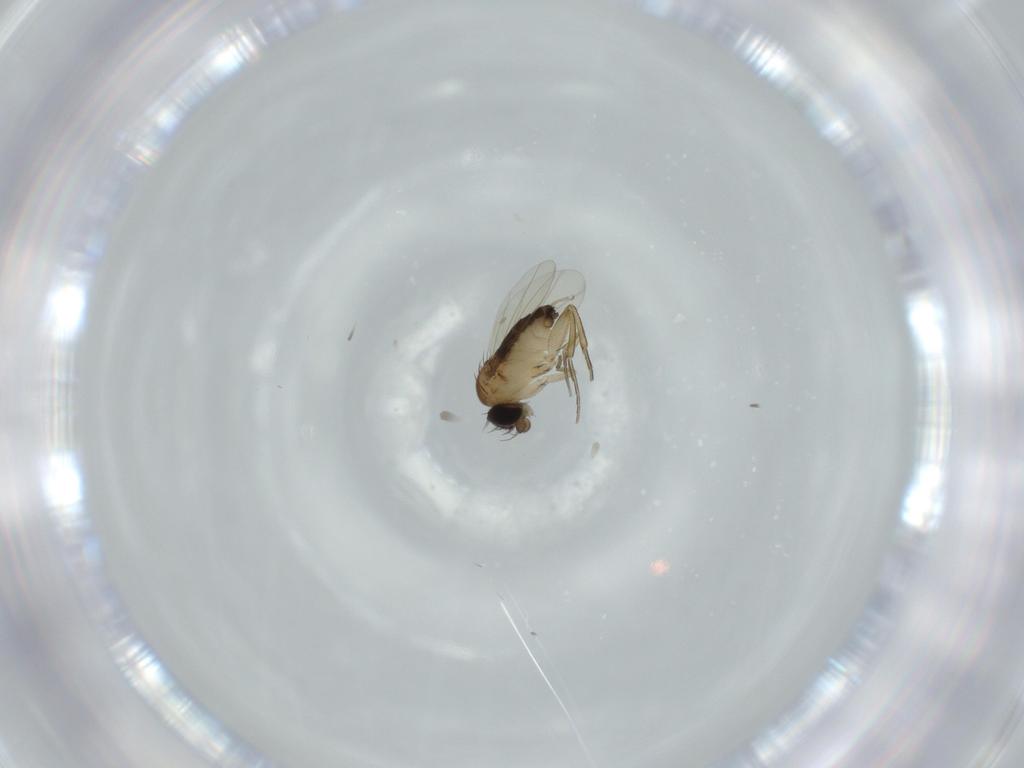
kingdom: Animalia
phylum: Arthropoda
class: Insecta
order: Diptera
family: Phoridae
